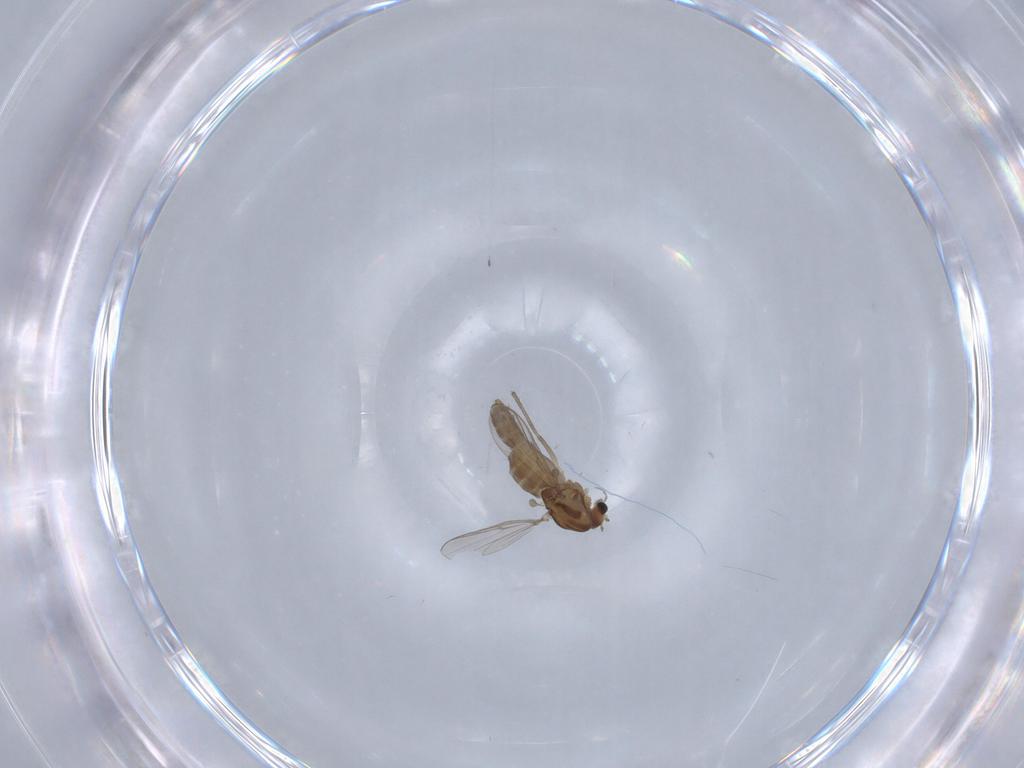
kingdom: Animalia
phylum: Arthropoda
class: Insecta
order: Diptera
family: Chironomidae
